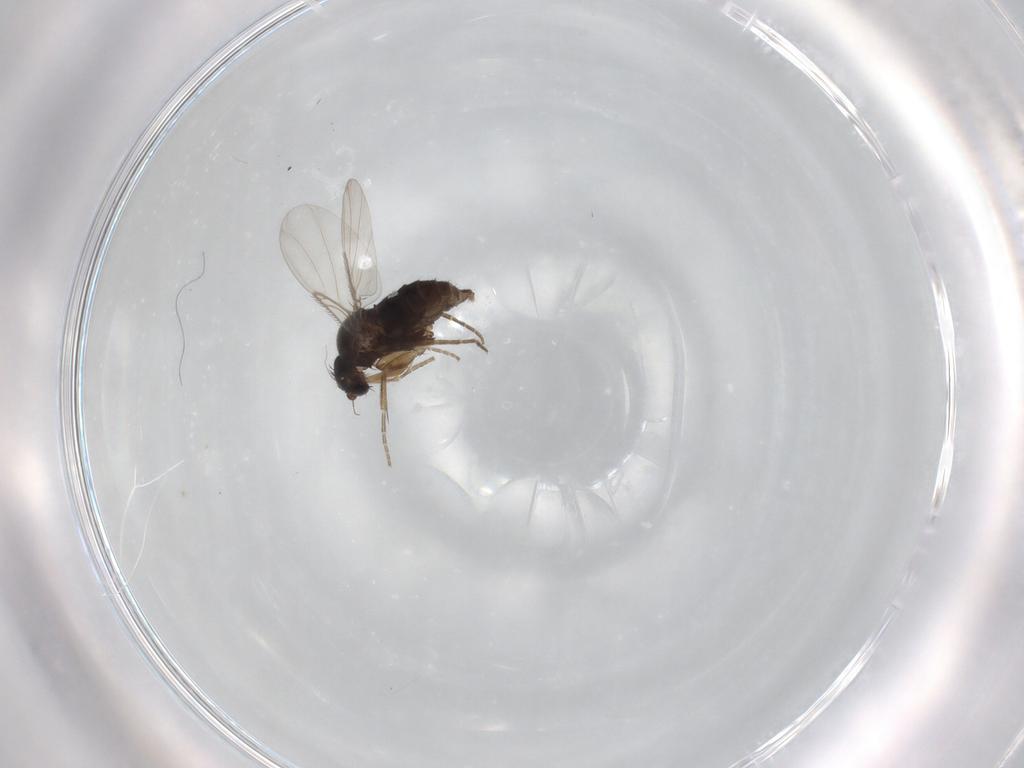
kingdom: Animalia
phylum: Arthropoda
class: Insecta
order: Diptera
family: Phoridae
